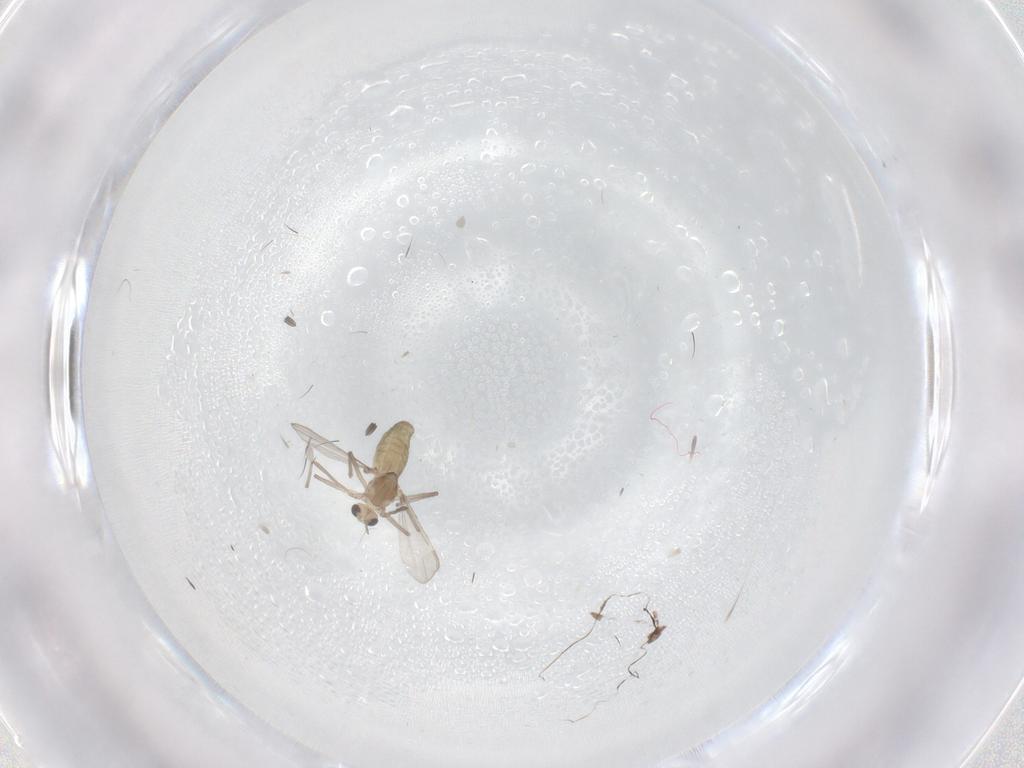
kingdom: Animalia
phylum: Arthropoda
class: Insecta
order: Diptera
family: Chironomidae
